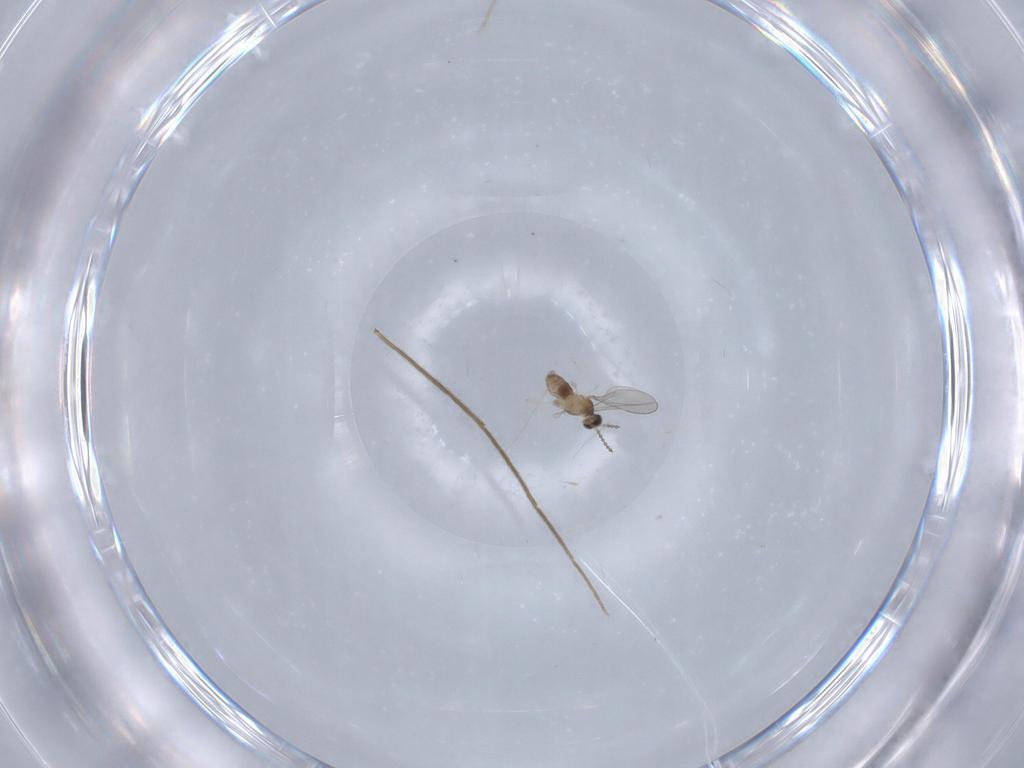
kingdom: Animalia
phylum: Arthropoda
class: Insecta
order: Diptera
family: Cecidomyiidae
